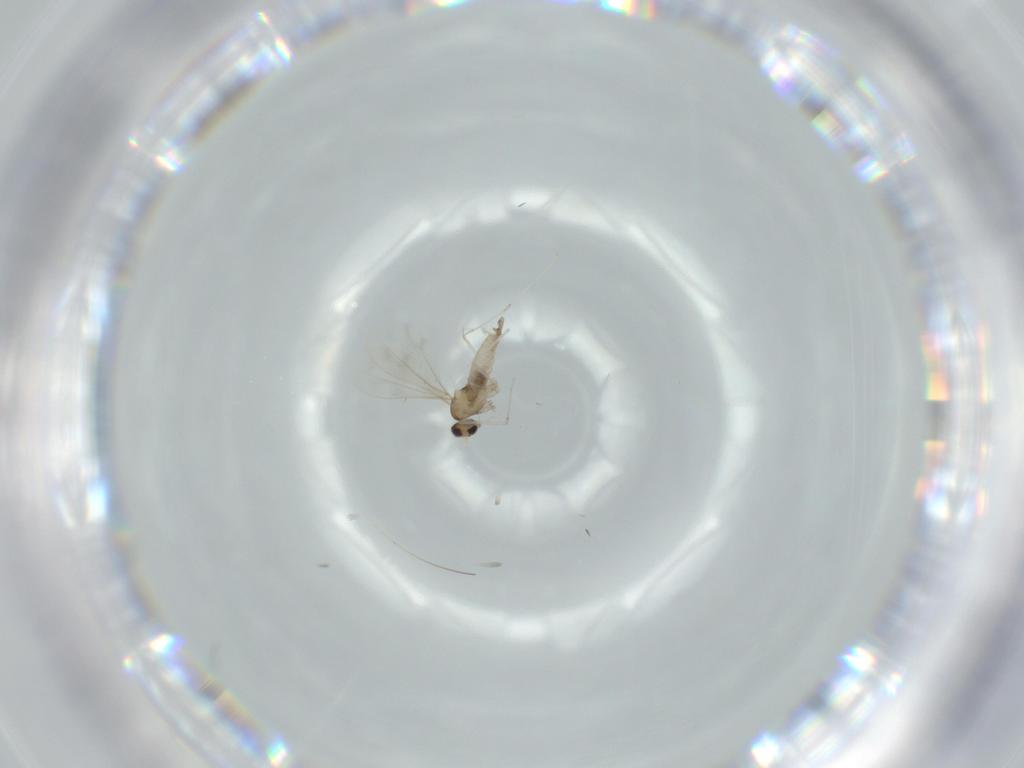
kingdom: Animalia
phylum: Arthropoda
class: Insecta
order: Diptera
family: Cecidomyiidae
